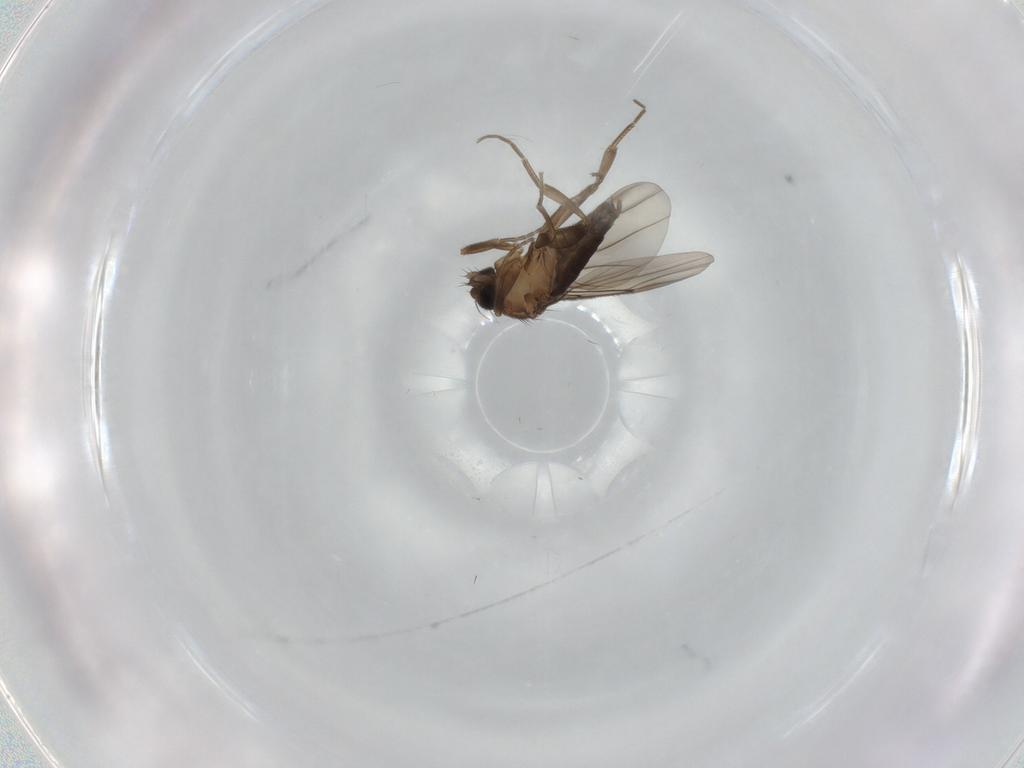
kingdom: Animalia
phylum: Arthropoda
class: Insecta
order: Diptera
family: Phoridae
